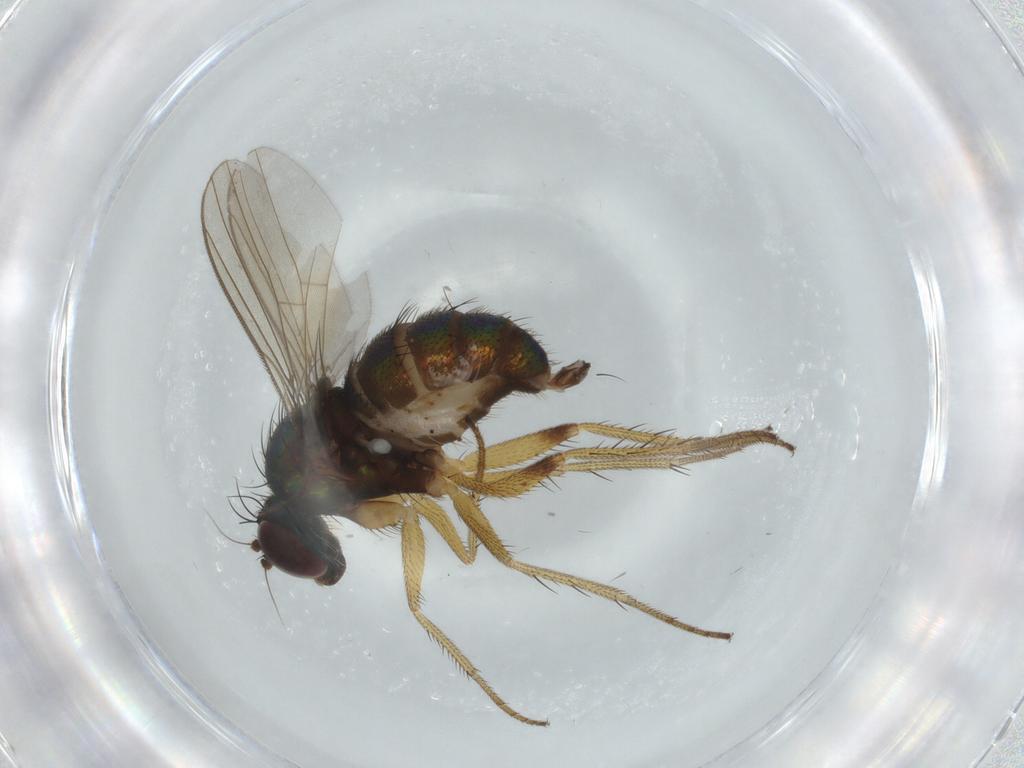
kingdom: Animalia
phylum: Arthropoda
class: Insecta
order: Diptera
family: Dolichopodidae
